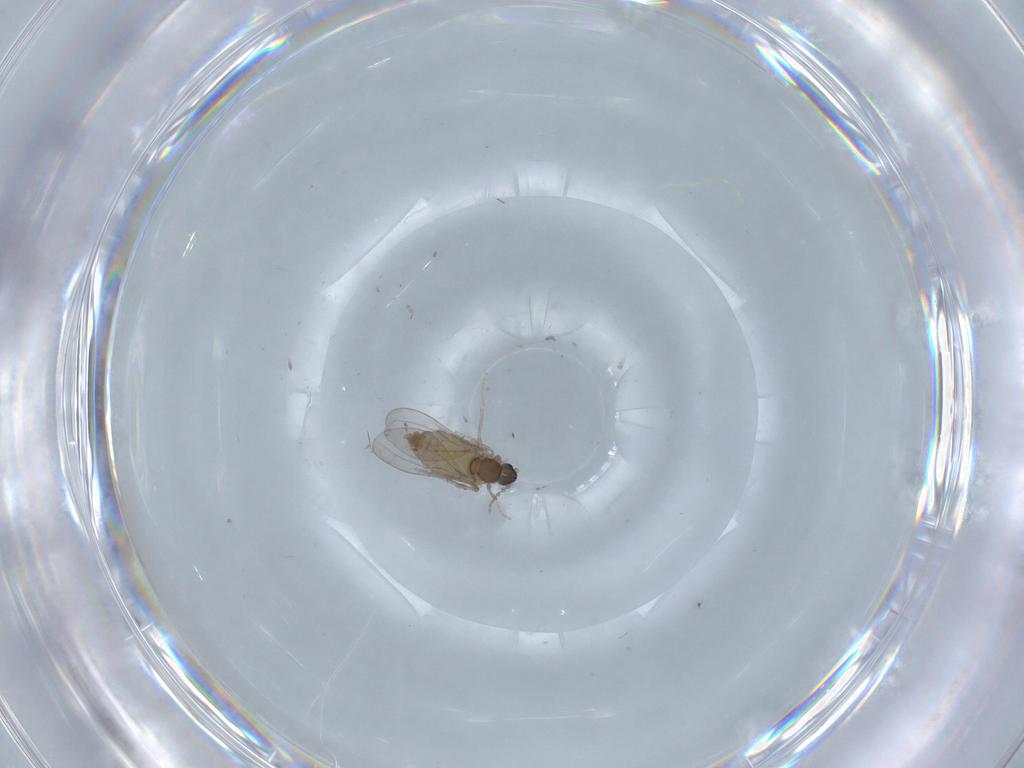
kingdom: Animalia
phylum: Arthropoda
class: Insecta
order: Diptera
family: Cecidomyiidae
